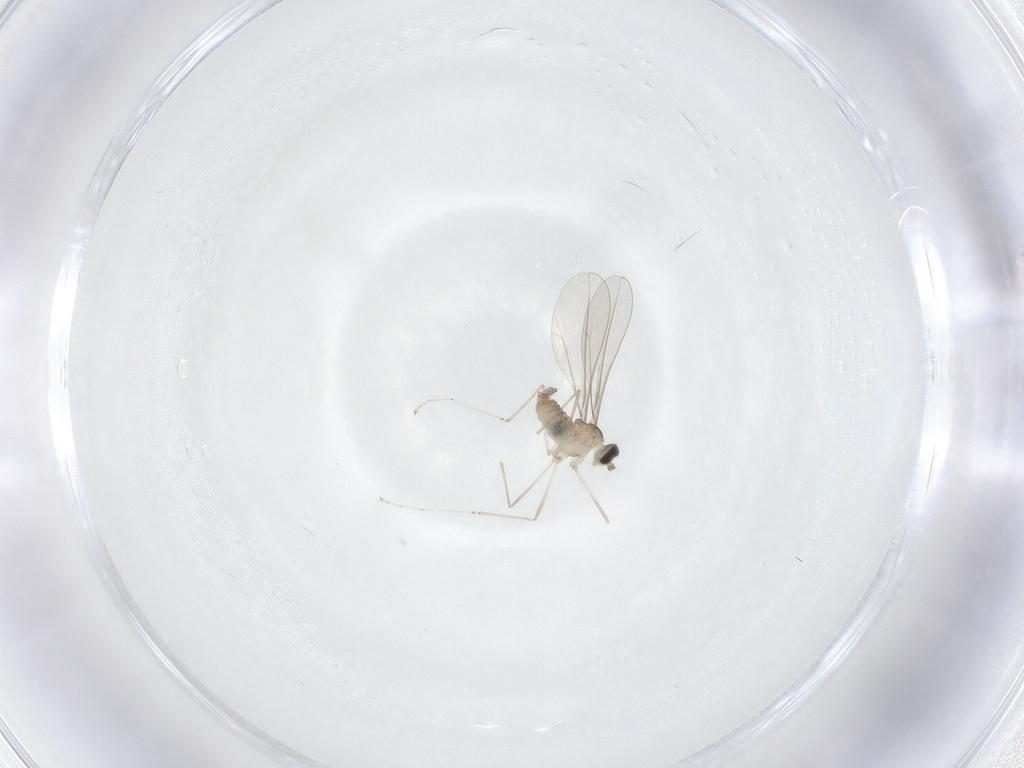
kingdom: Animalia
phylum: Arthropoda
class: Insecta
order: Diptera
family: Cecidomyiidae
